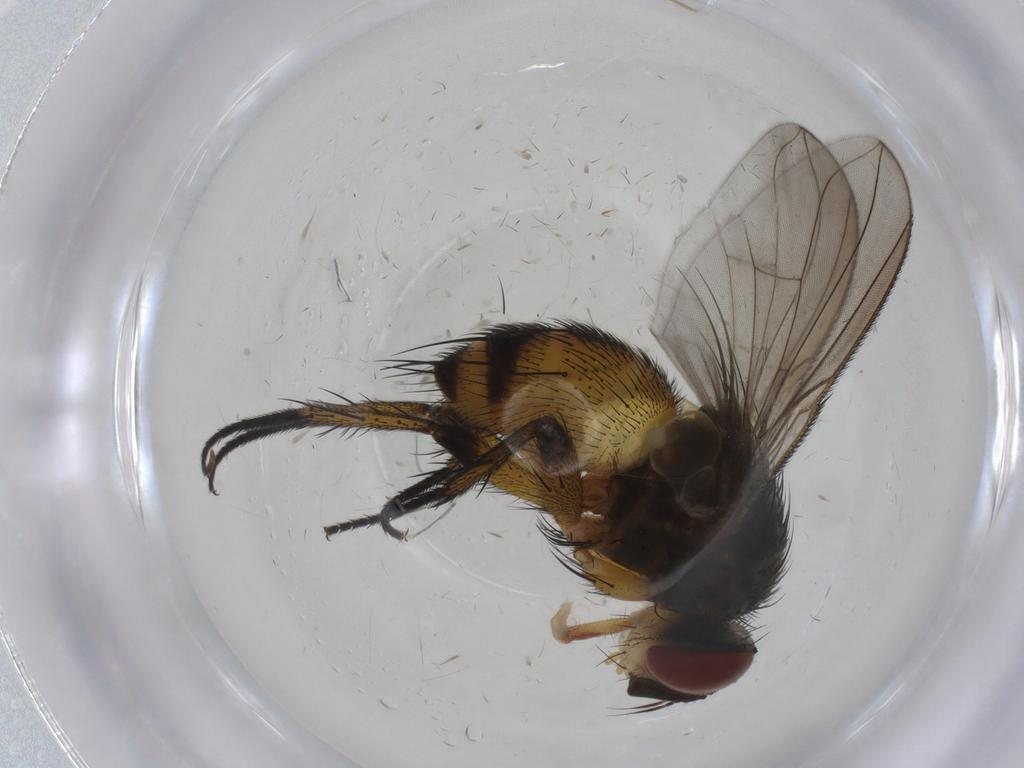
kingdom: Animalia
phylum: Arthropoda
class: Insecta
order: Diptera
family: Tachinidae
